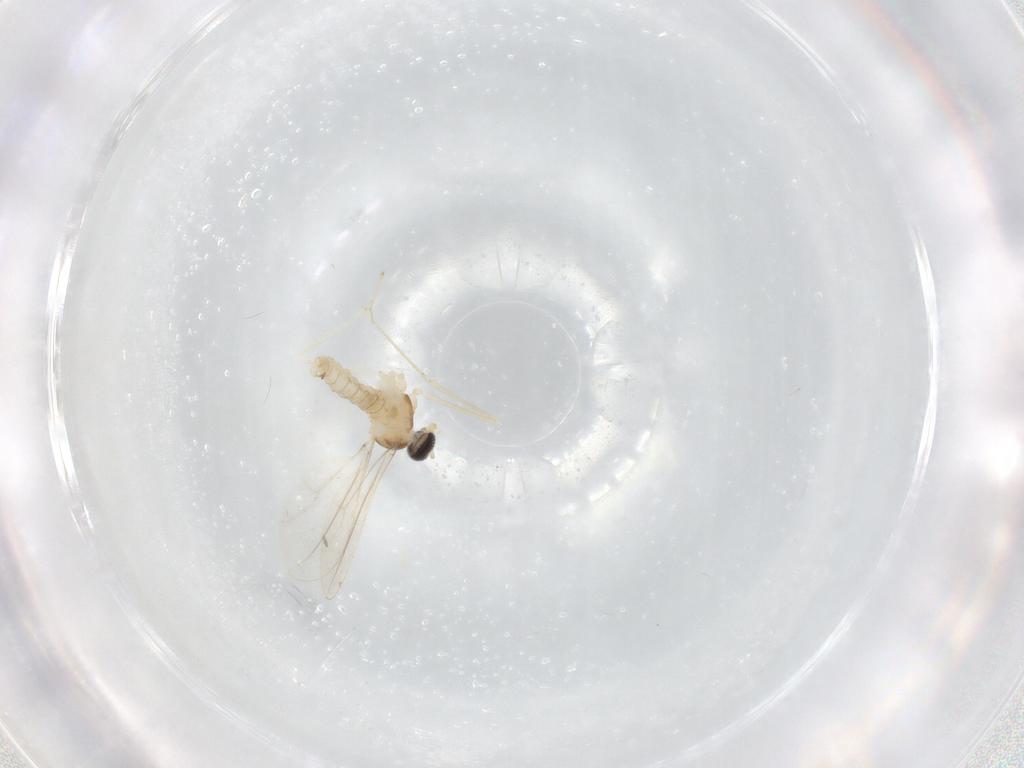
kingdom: Animalia
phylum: Arthropoda
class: Insecta
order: Diptera
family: Cecidomyiidae
